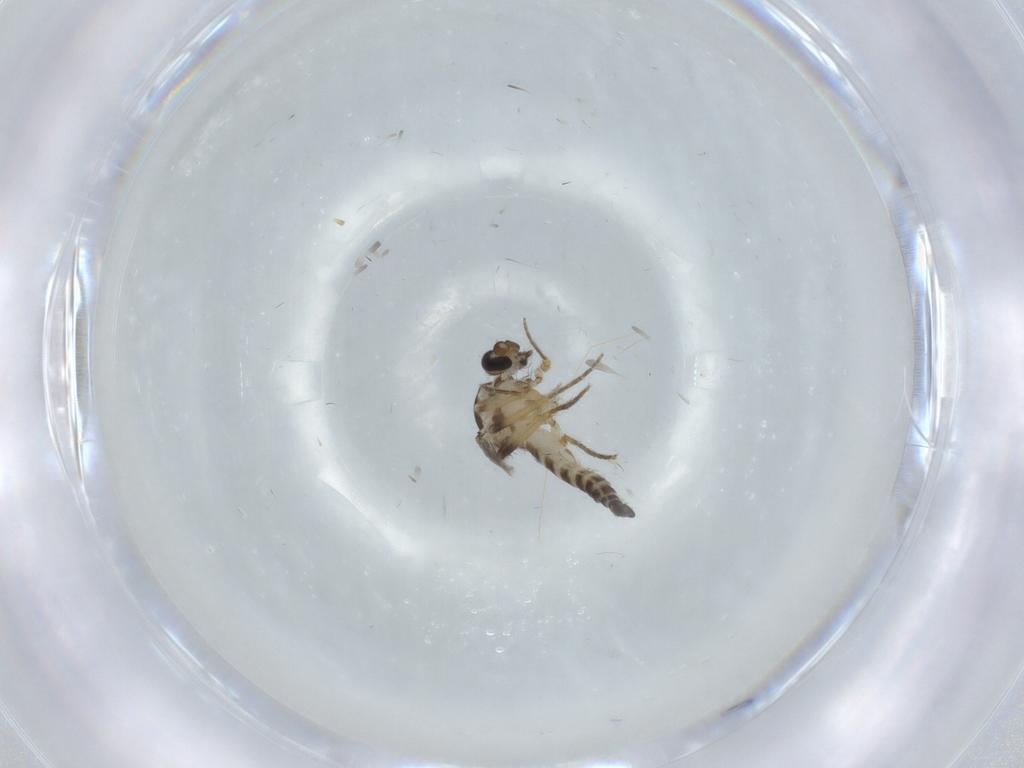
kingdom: Animalia
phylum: Arthropoda
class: Insecta
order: Diptera
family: Ceratopogonidae
